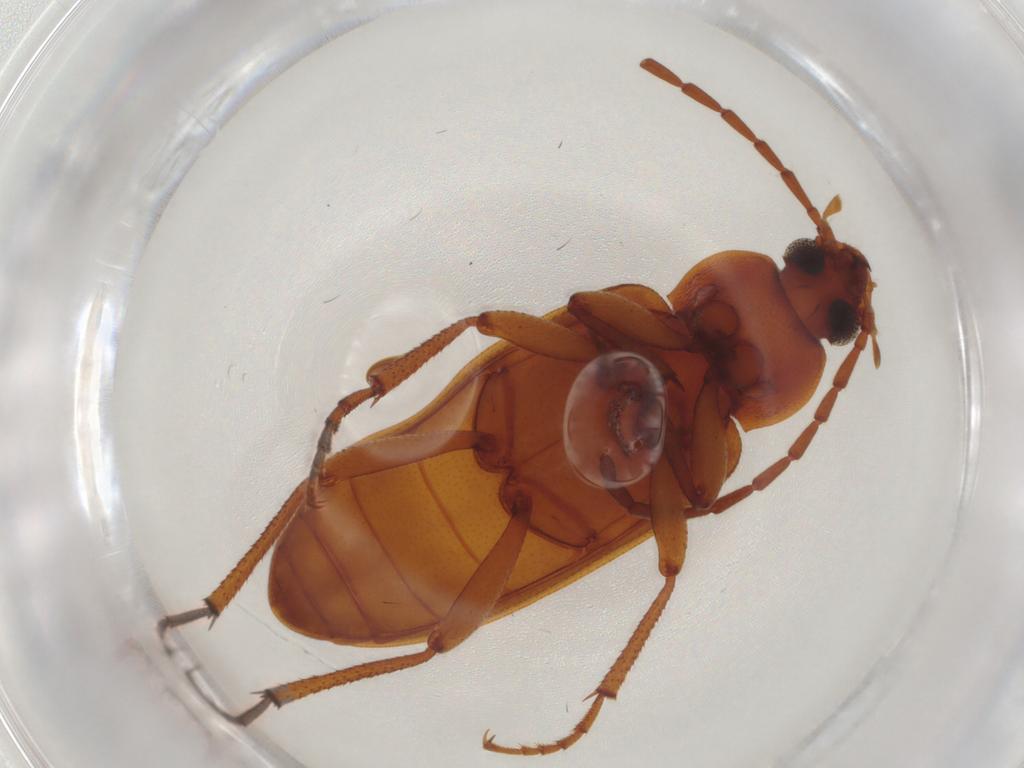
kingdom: Animalia
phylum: Arthropoda
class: Insecta
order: Coleoptera
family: Tenebrionidae
